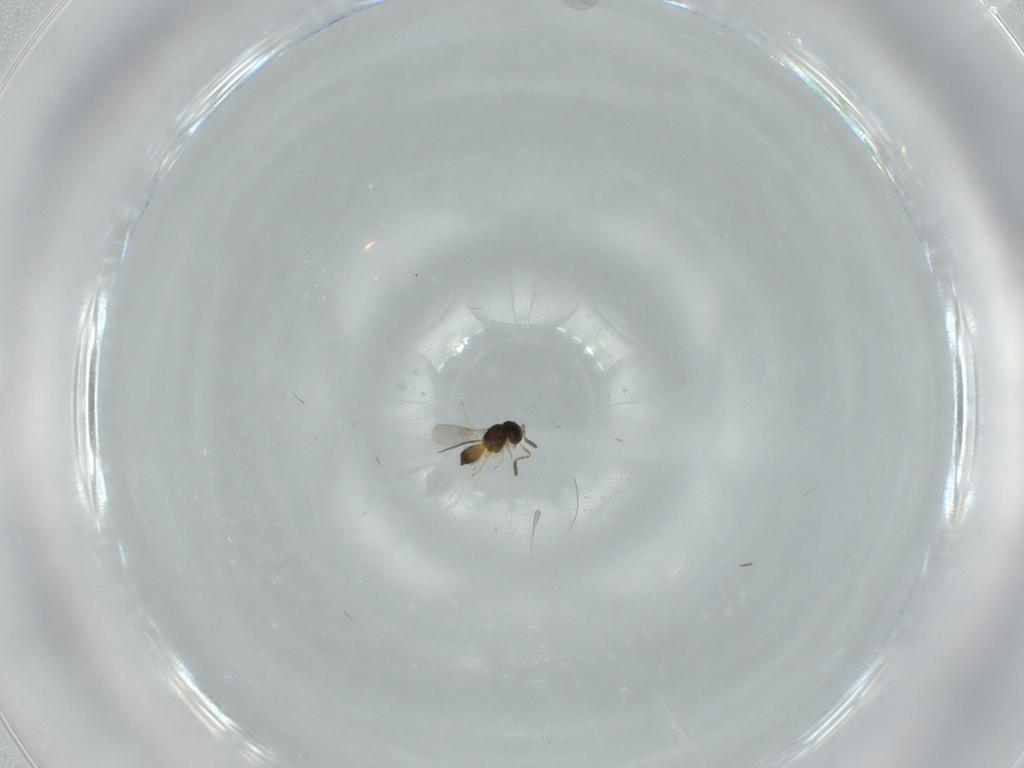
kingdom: Animalia
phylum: Arthropoda
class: Insecta
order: Hymenoptera
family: Scelionidae
